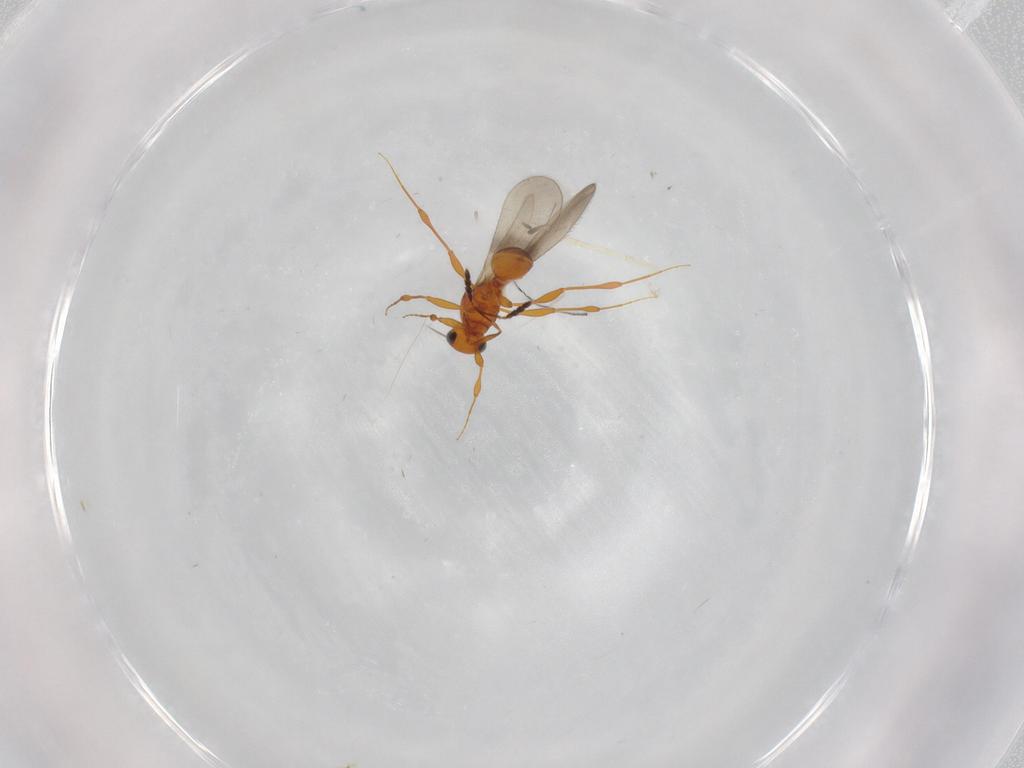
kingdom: Animalia
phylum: Arthropoda
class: Insecta
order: Hymenoptera
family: Platygastridae
